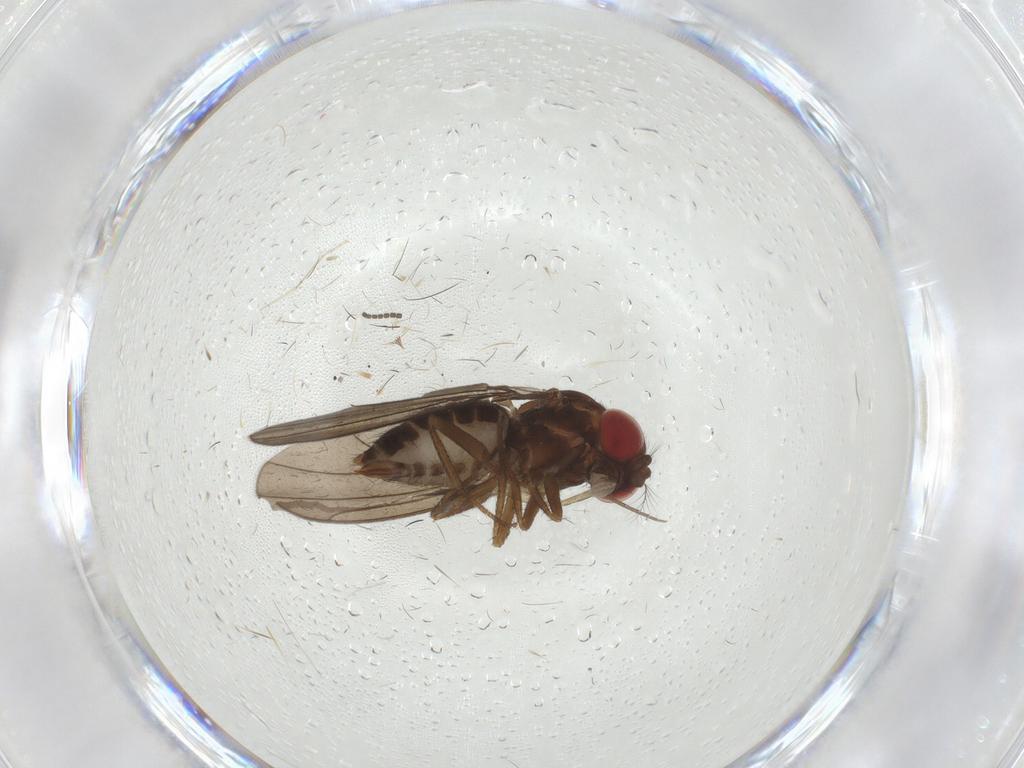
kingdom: Animalia
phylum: Arthropoda
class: Insecta
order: Diptera
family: Drosophilidae
